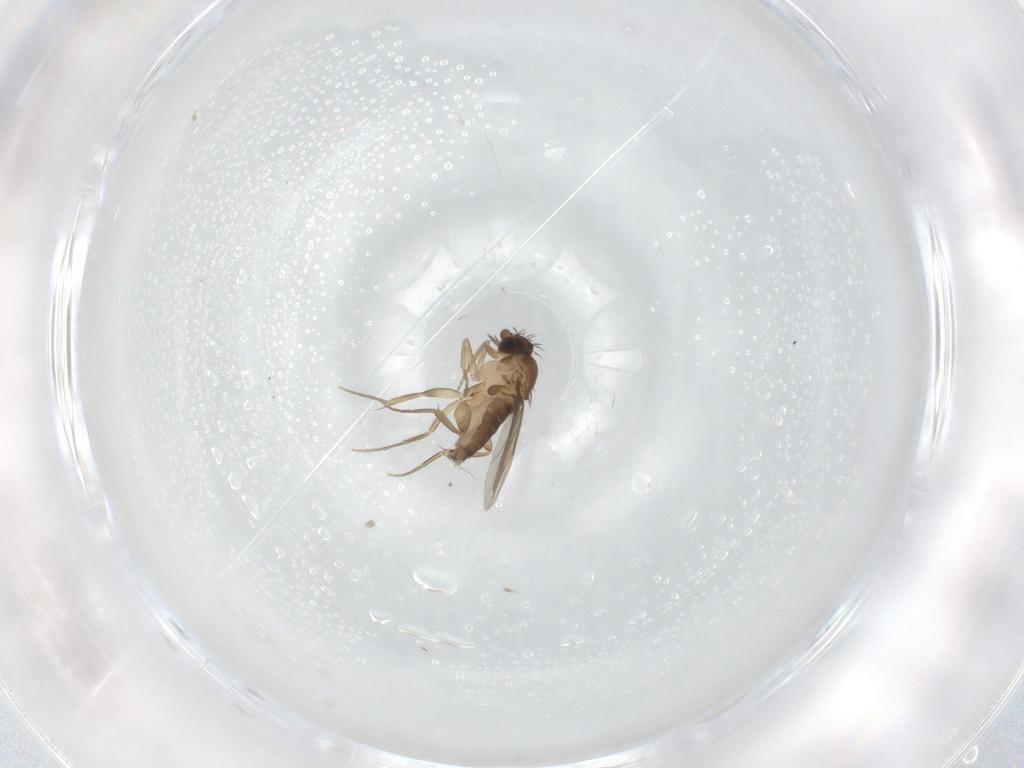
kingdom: Animalia
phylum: Arthropoda
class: Insecta
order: Diptera
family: Phoridae
